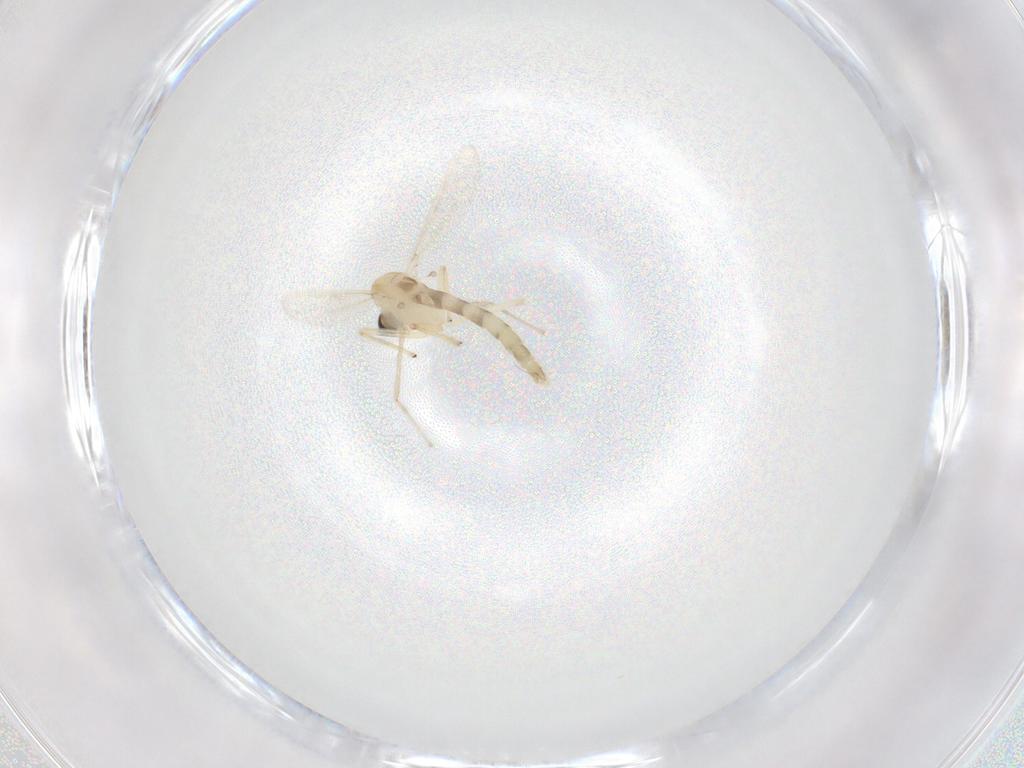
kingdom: Animalia
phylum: Arthropoda
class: Insecta
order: Diptera
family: Chironomidae
